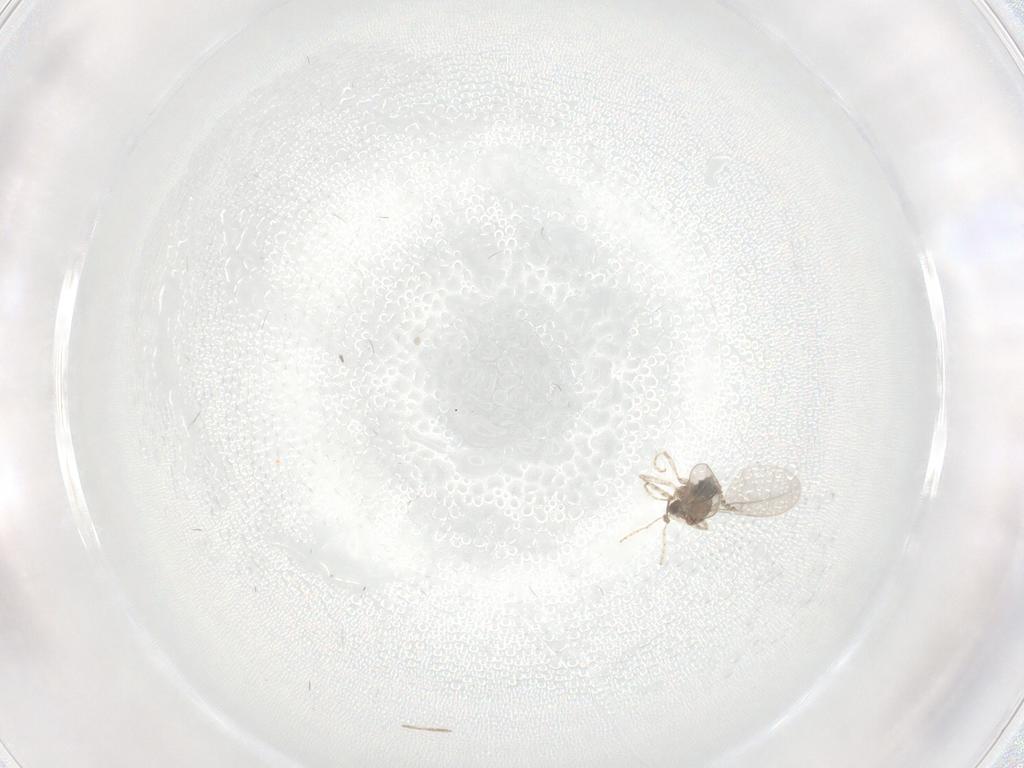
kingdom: Animalia
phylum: Arthropoda
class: Insecta
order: Diptera
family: Cecidomyiidae
